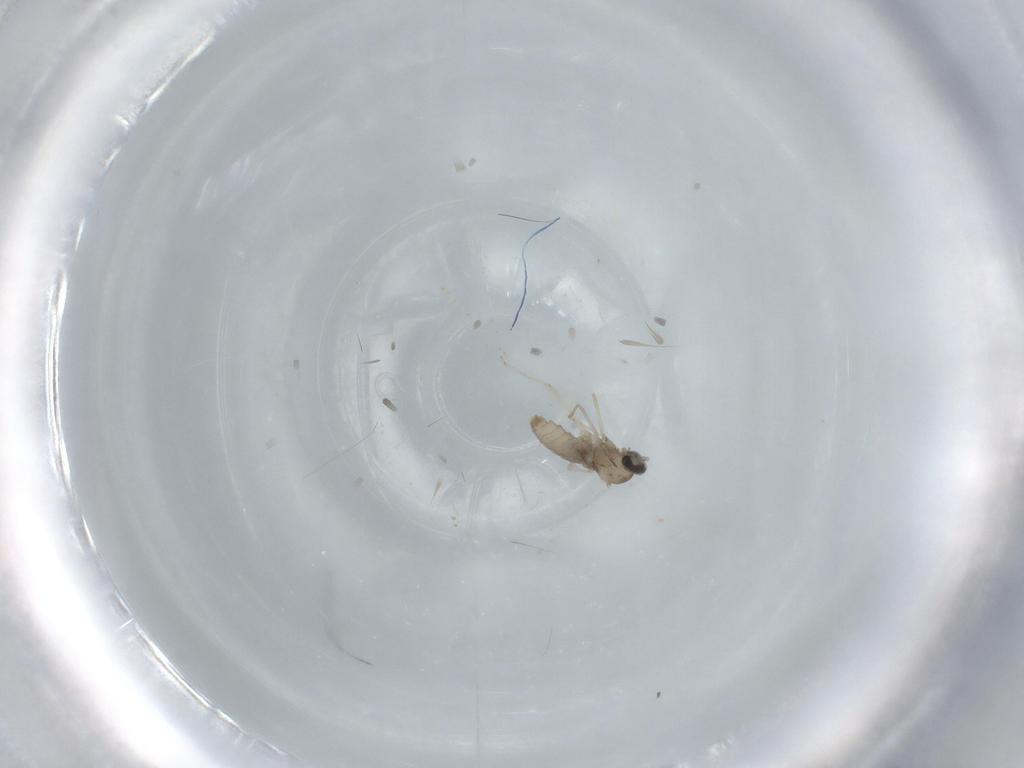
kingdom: Animalia
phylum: Arthropoda
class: Insecta
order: Diptera
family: Cecidomyiidae
